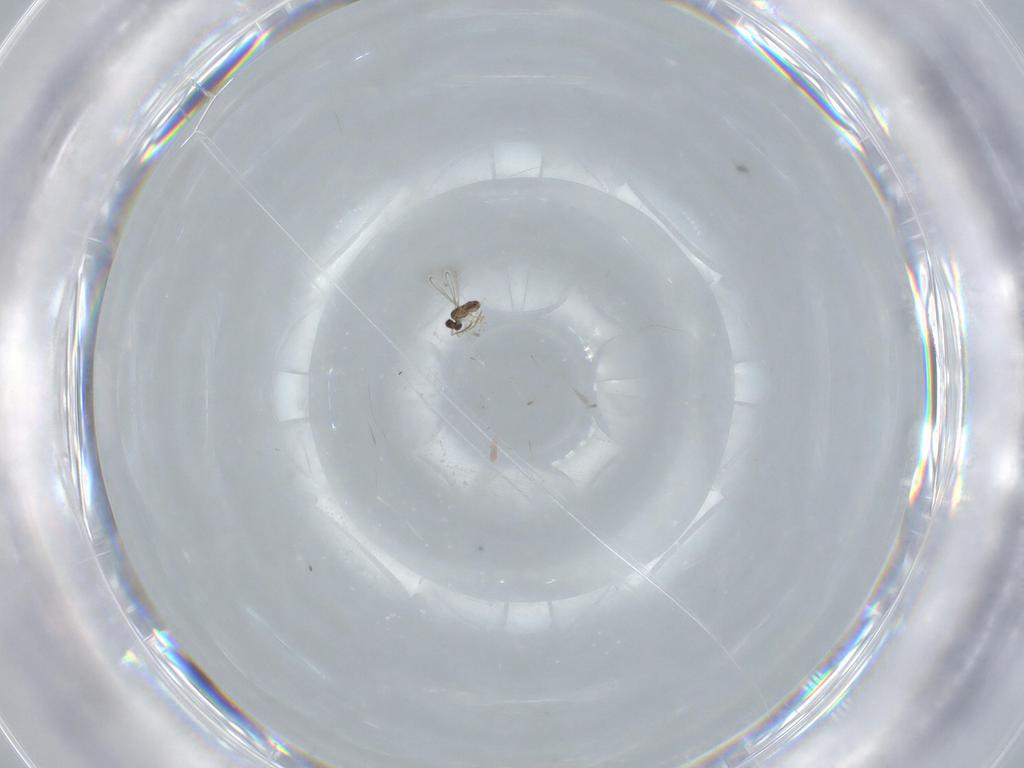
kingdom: Animalia
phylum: Arthropoda
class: Insecta
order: Hymenoptera
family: Mymaridae
